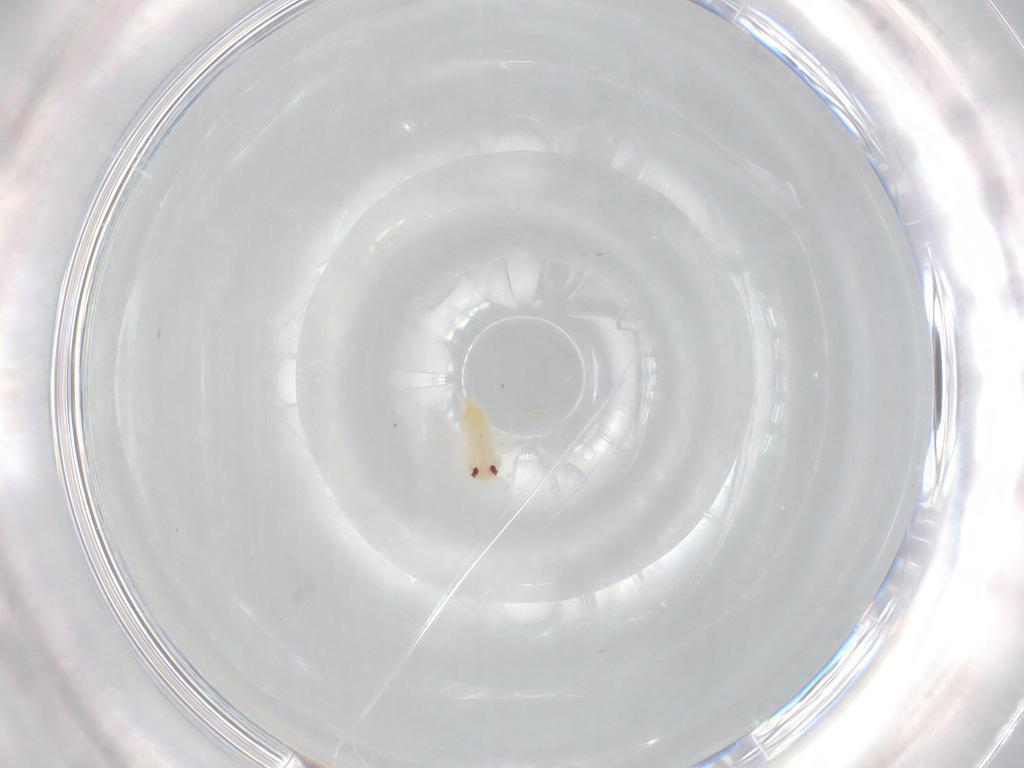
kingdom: Animalia
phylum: Arthropoda
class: Insecta
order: Hemiptera
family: Aleyrodidae
